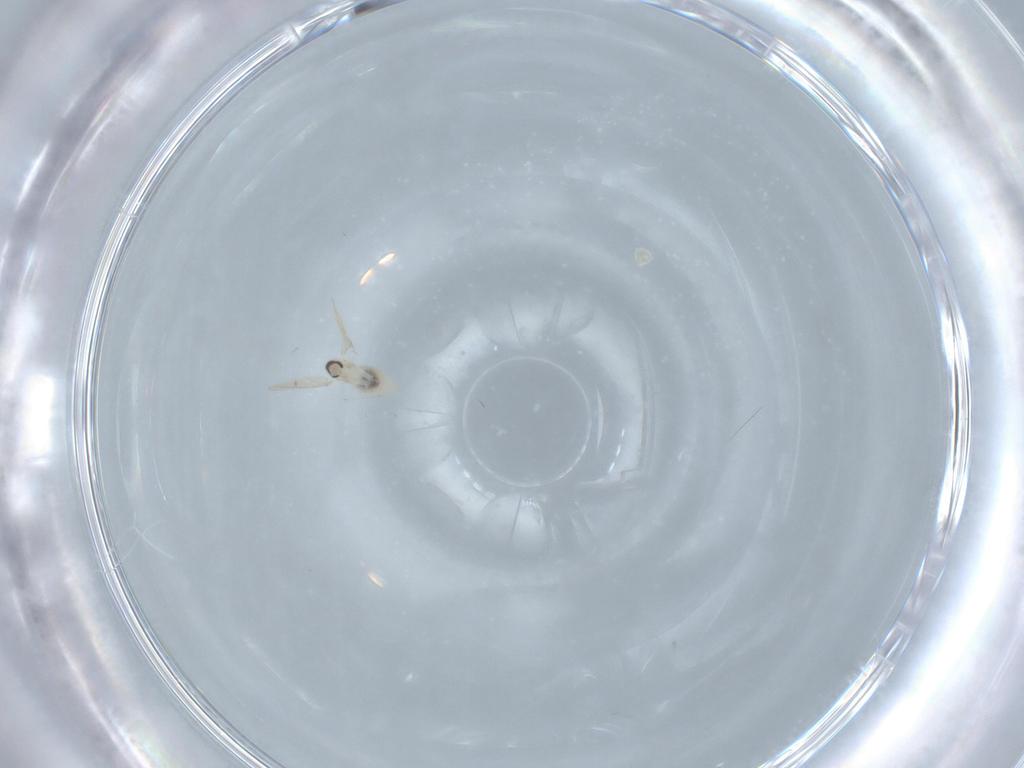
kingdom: Animalia
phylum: Arthropoda
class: Insecta
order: Diptera
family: Cecidomyiidae
